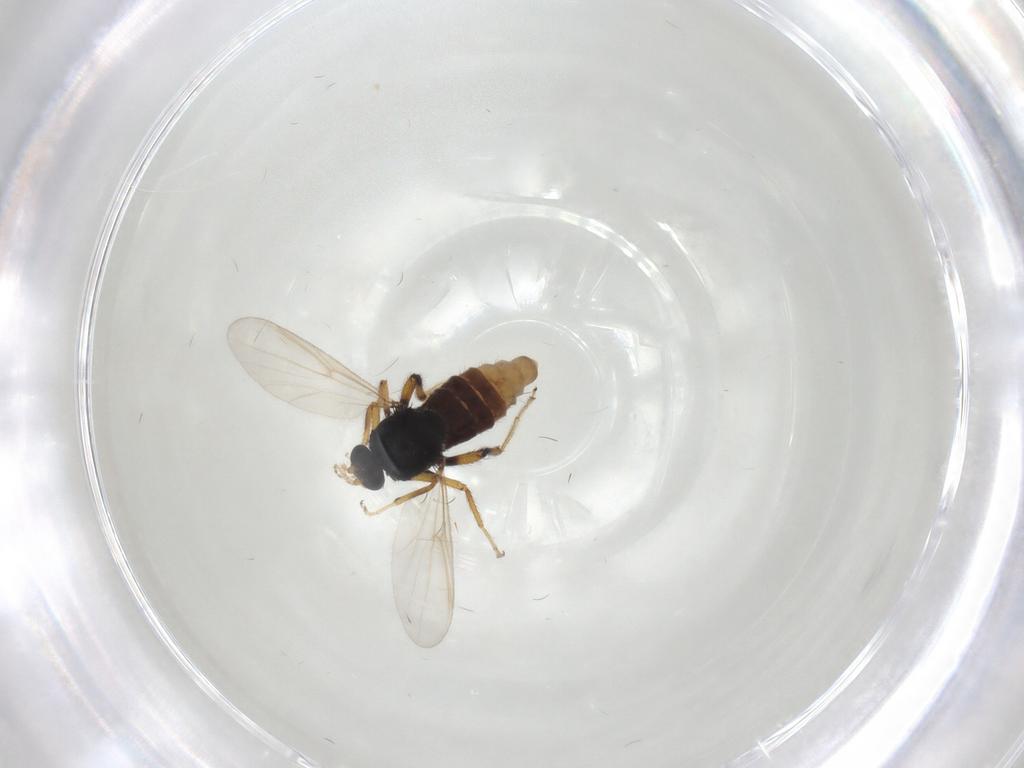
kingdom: Animalia
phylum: Arthropoda
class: Insecta
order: Diptera
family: Ceratopogonidae
